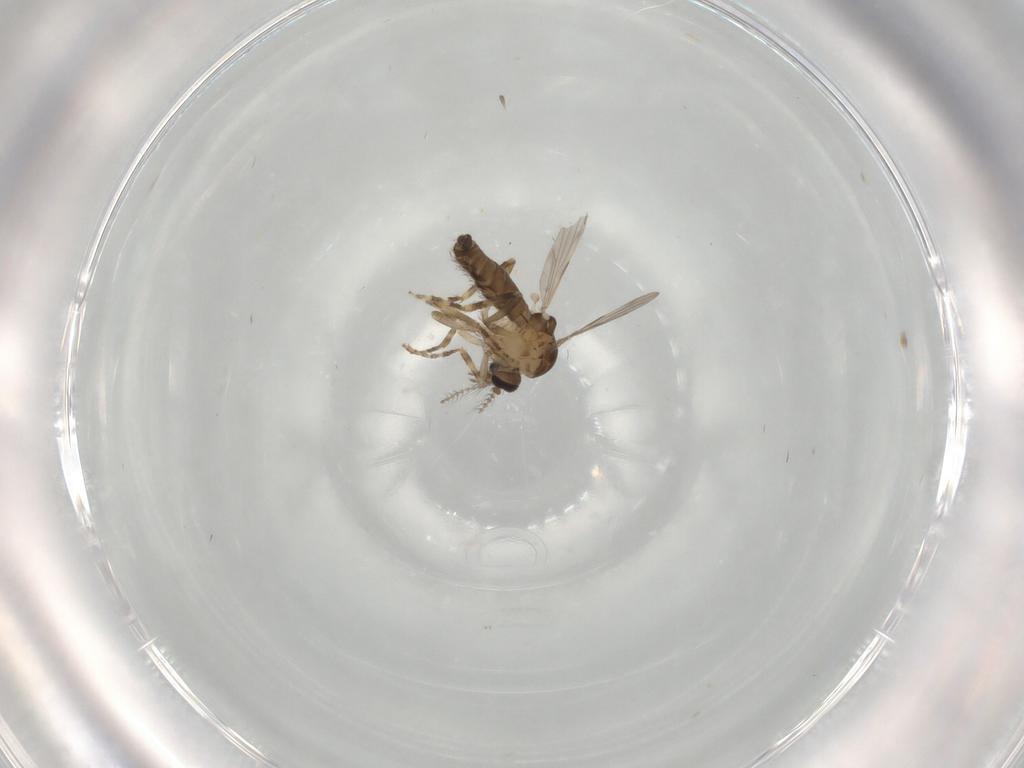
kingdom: Animalia
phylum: Arthropoda
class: Insecta
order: Diptera
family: Ceratopogonidae
